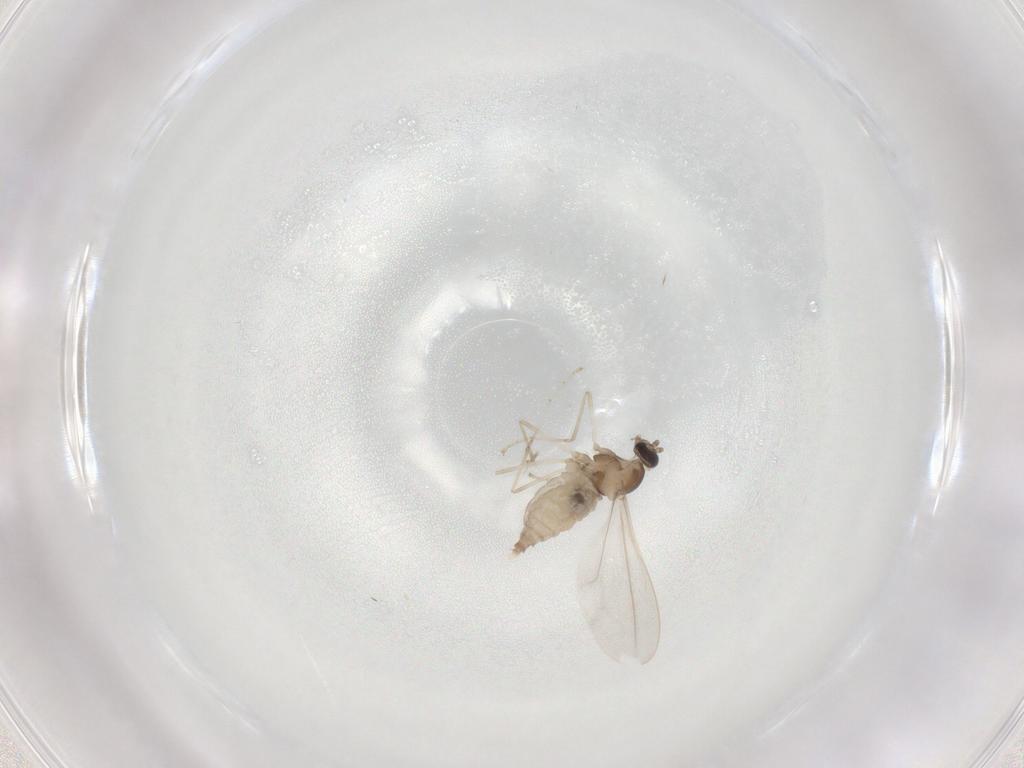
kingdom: Animalia
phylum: Arthropoda
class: Insecta
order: Diptera
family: Cecidomyiidae
